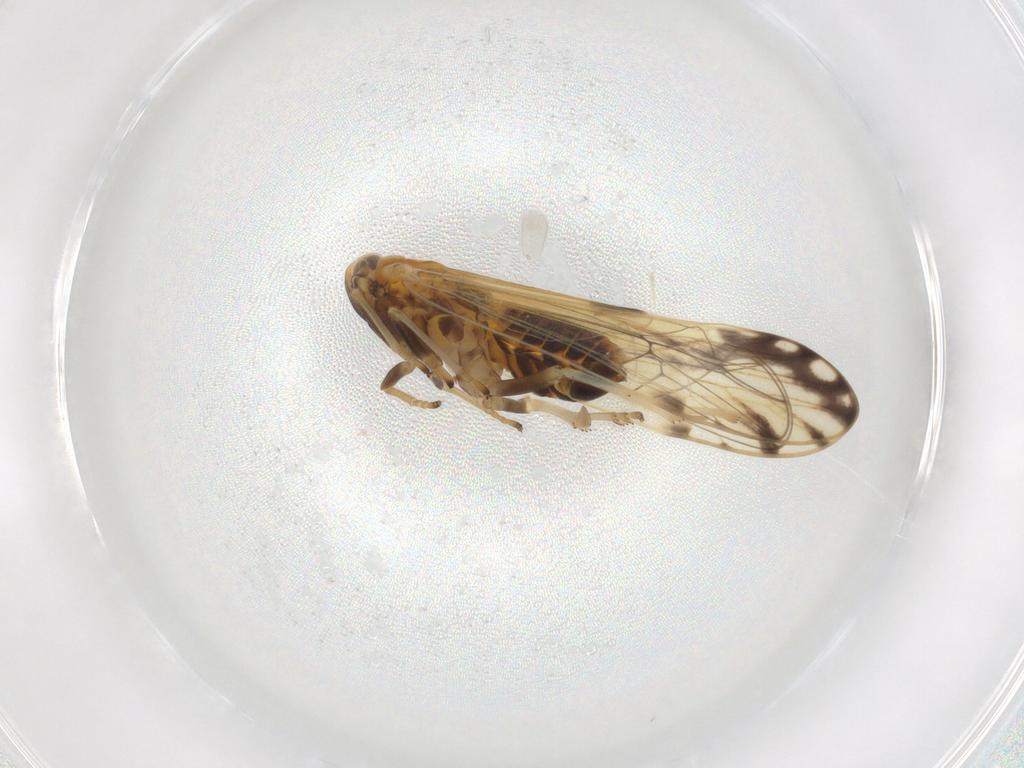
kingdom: Animalia
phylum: Arthropoda
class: Insecta
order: Hemiptera
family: Delphacidae
